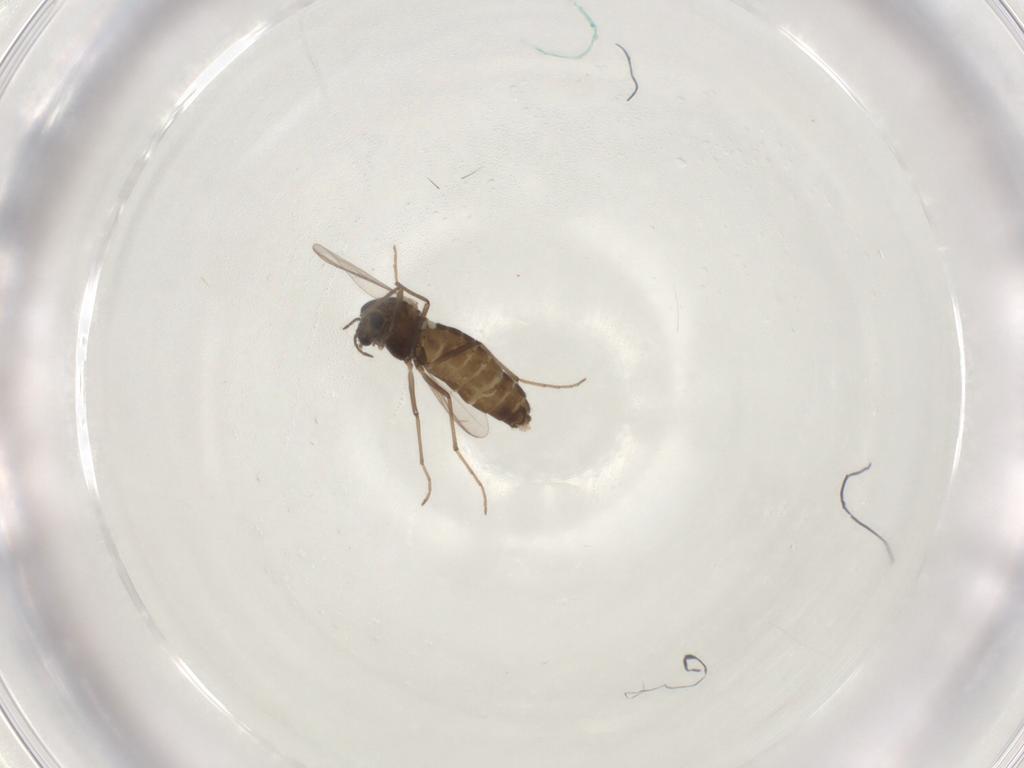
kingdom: Animalia
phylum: Arthropoda
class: Insecta
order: Diptera
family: Chironomidae
